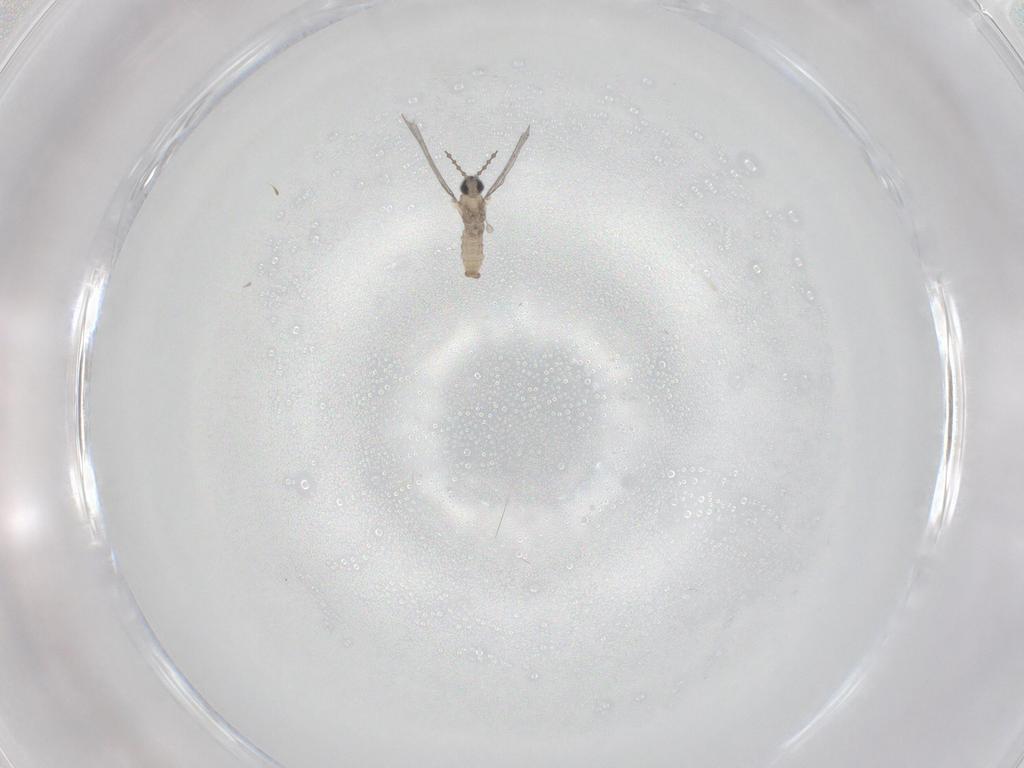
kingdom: Animalia
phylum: Arthropoda
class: Insecta
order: Diptera
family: Cecidomyiidae
